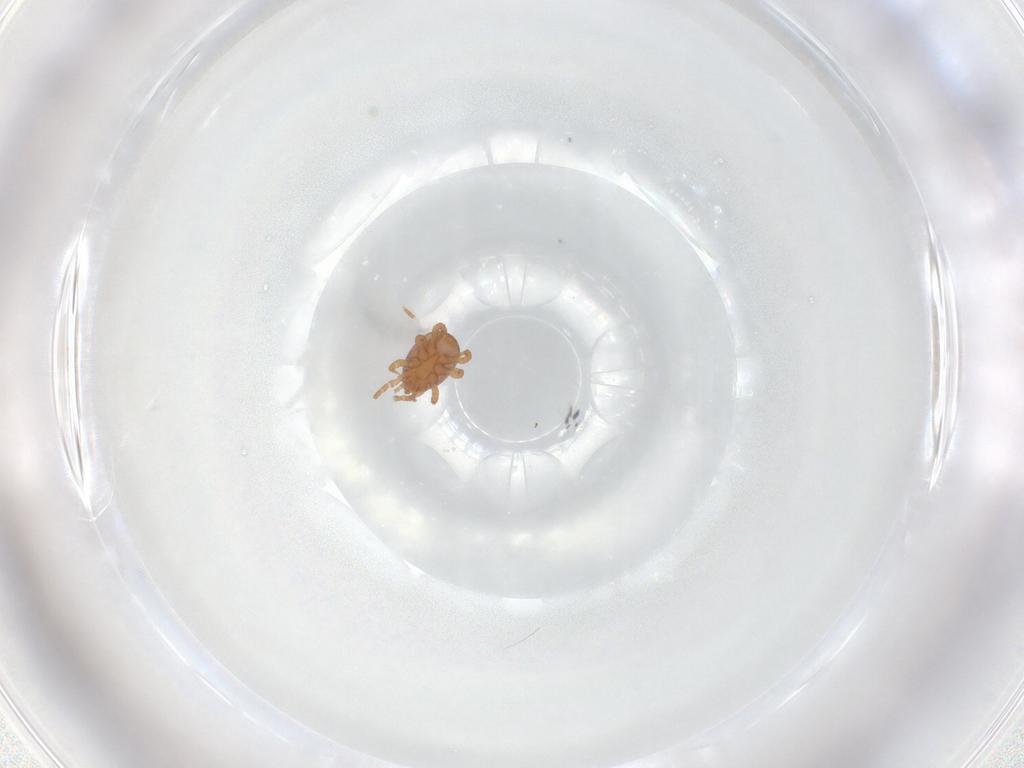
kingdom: Animalia
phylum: Arthropoda
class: Arachnida
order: Mesostigmata
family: Eviphididae
